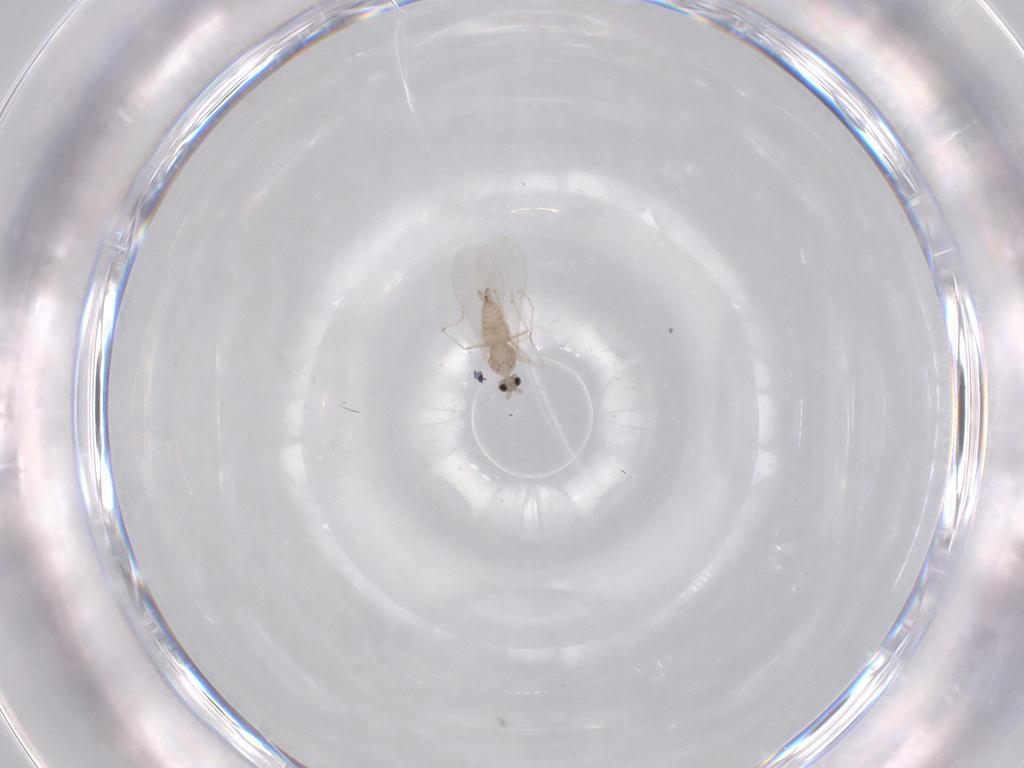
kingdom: Animalia
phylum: Arthropoda
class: Insecta
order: Diptera
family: Cecidomyiidae
